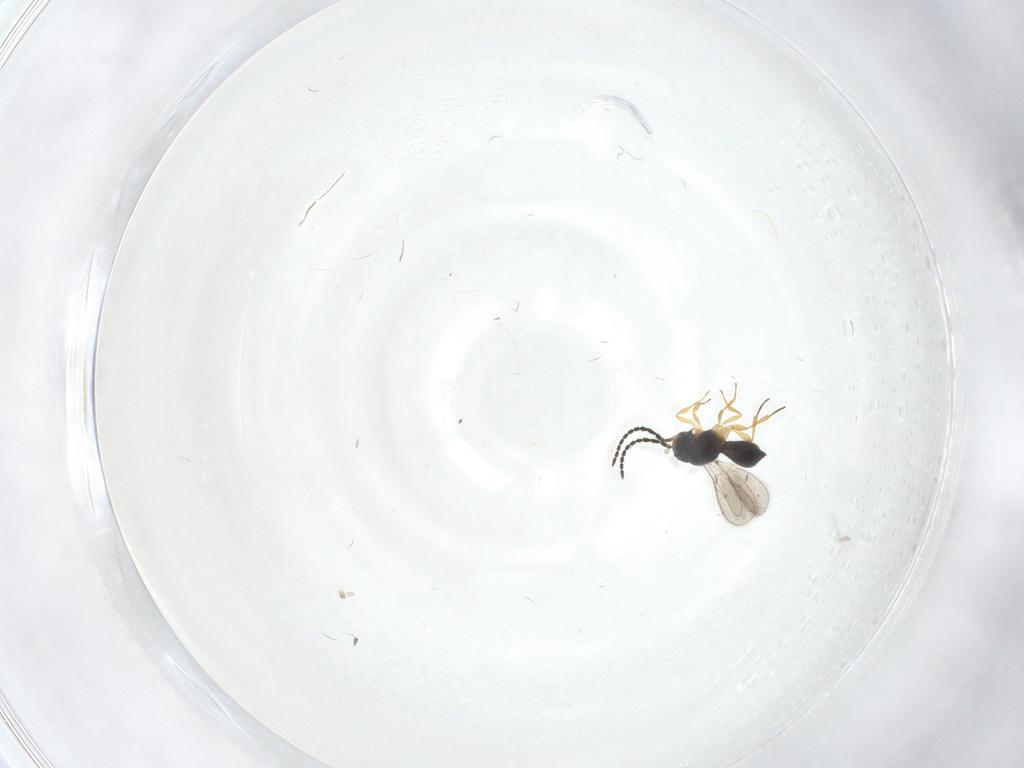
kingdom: Animalia
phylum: Arthropoda
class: Insecta
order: Hymenoptera
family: Scelionidae
